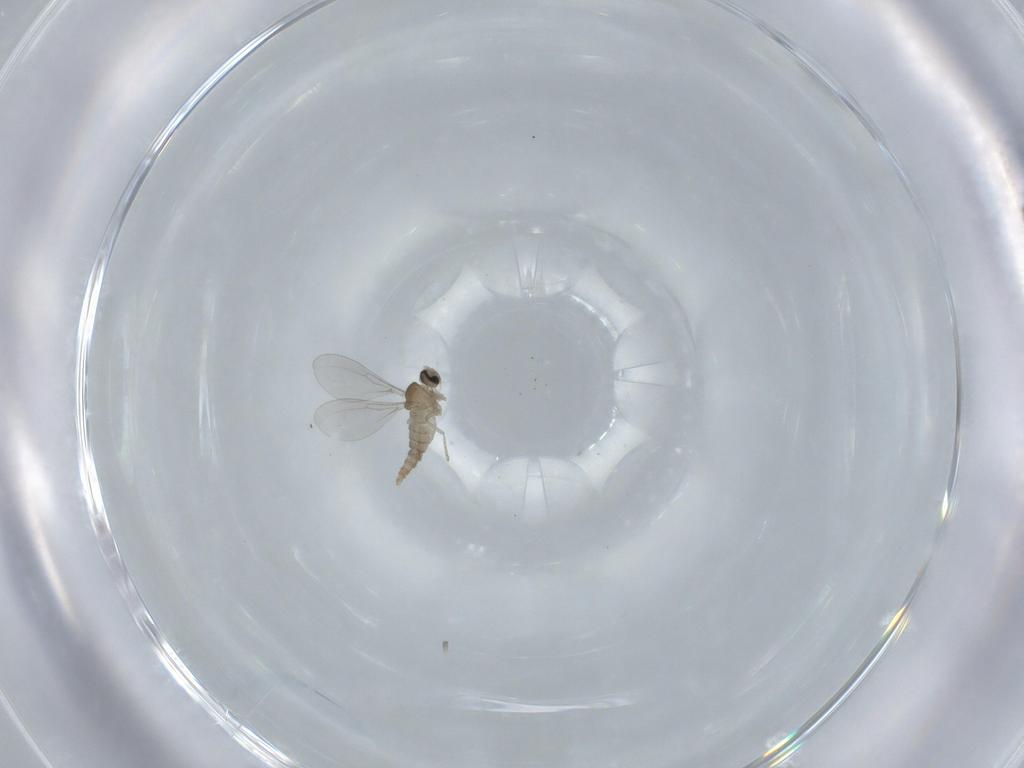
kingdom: Animalia
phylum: Arthropoda
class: Insecta
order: Diptera
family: Cecidomyiidae
